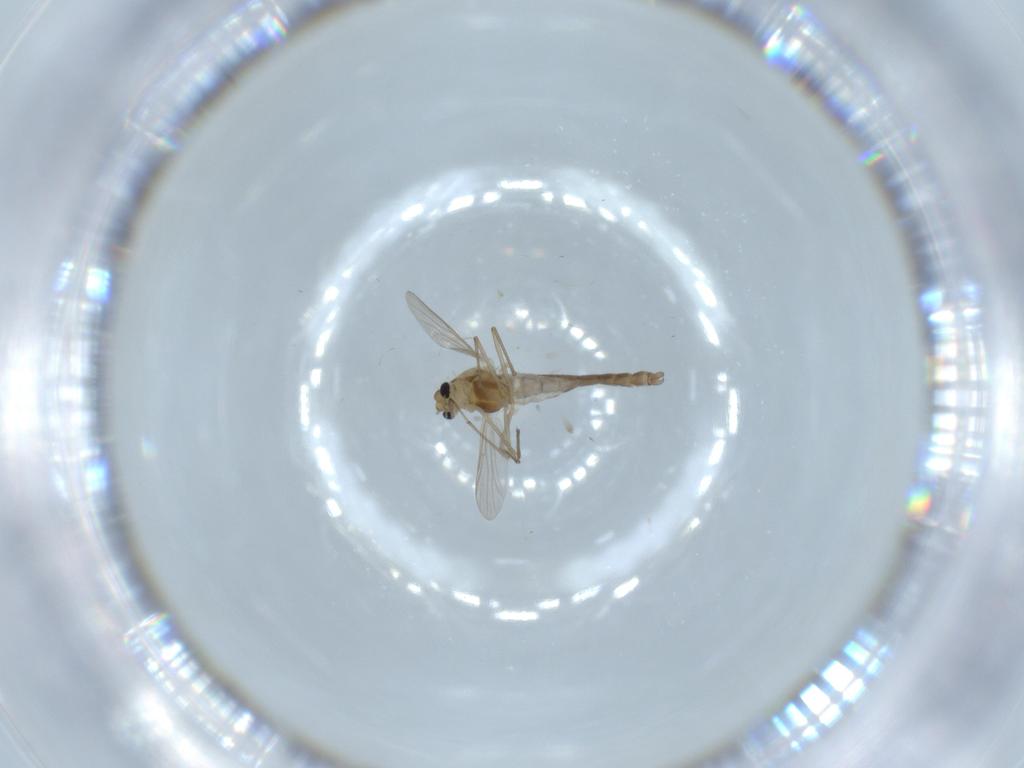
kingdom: Animalia
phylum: Arthropoda
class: Insecta
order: Diptera
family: Chironomidae
